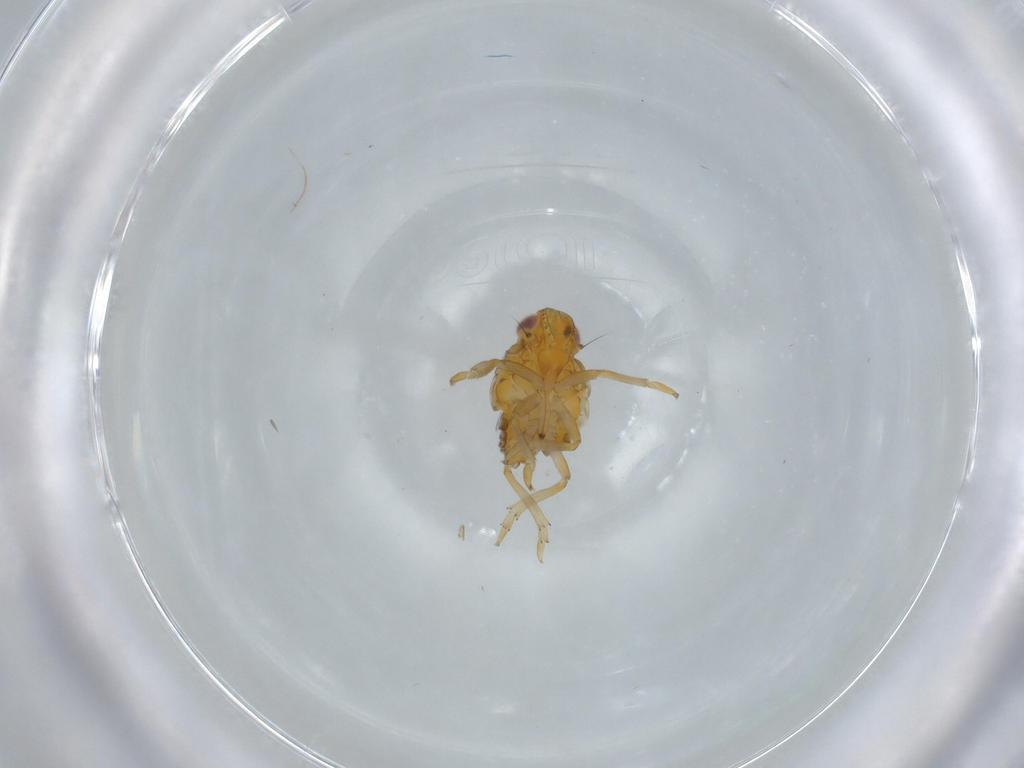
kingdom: Animalia
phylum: Arthropoda
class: Insecta
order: Hemiptera
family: Issidae
